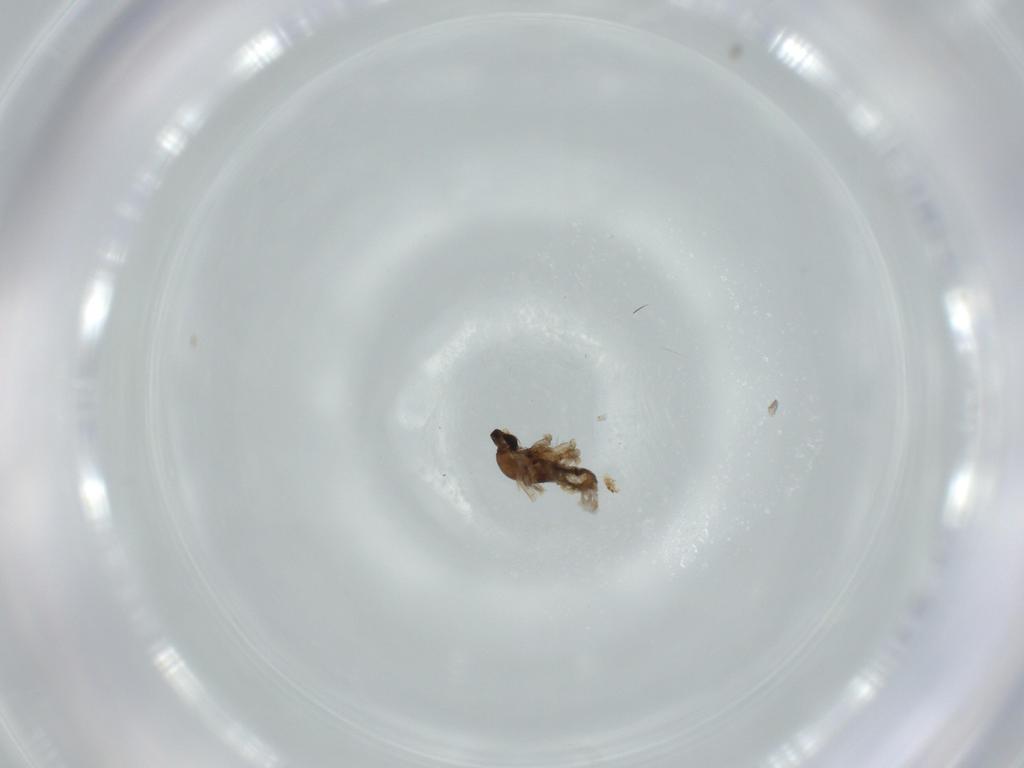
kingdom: Animalia
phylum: Arthropoda
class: Insecta
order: Diptera
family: Cecidomyiidae
